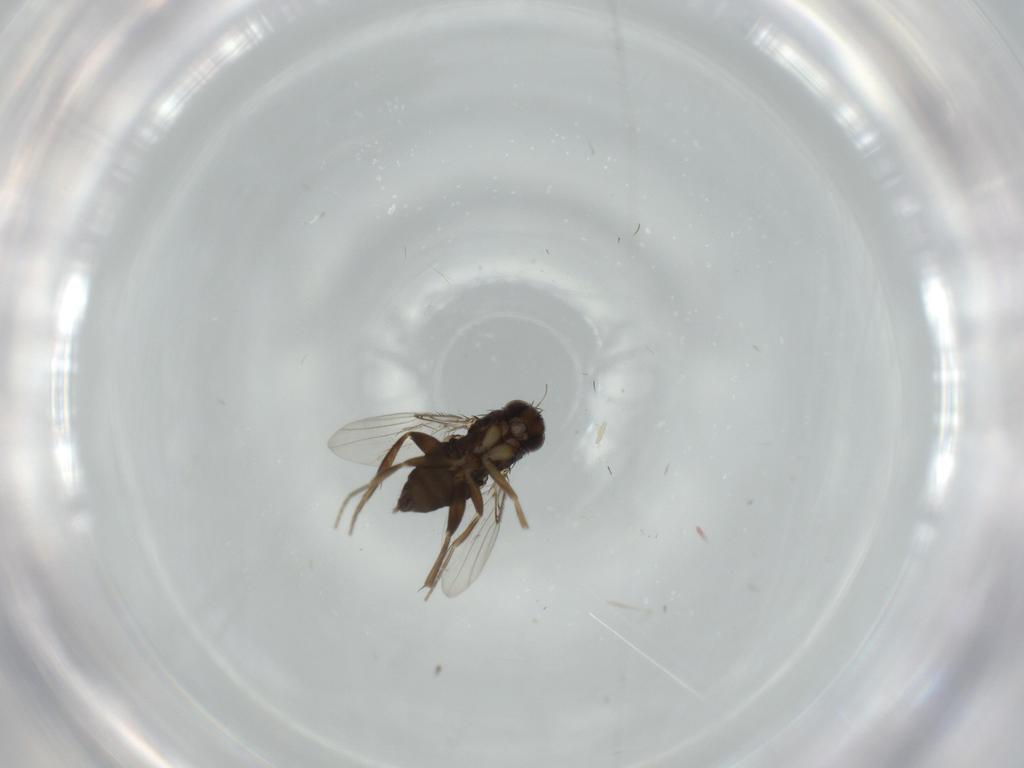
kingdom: Animalia
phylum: Arthropoda
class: Insecta
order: Diptera
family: Phoridae
